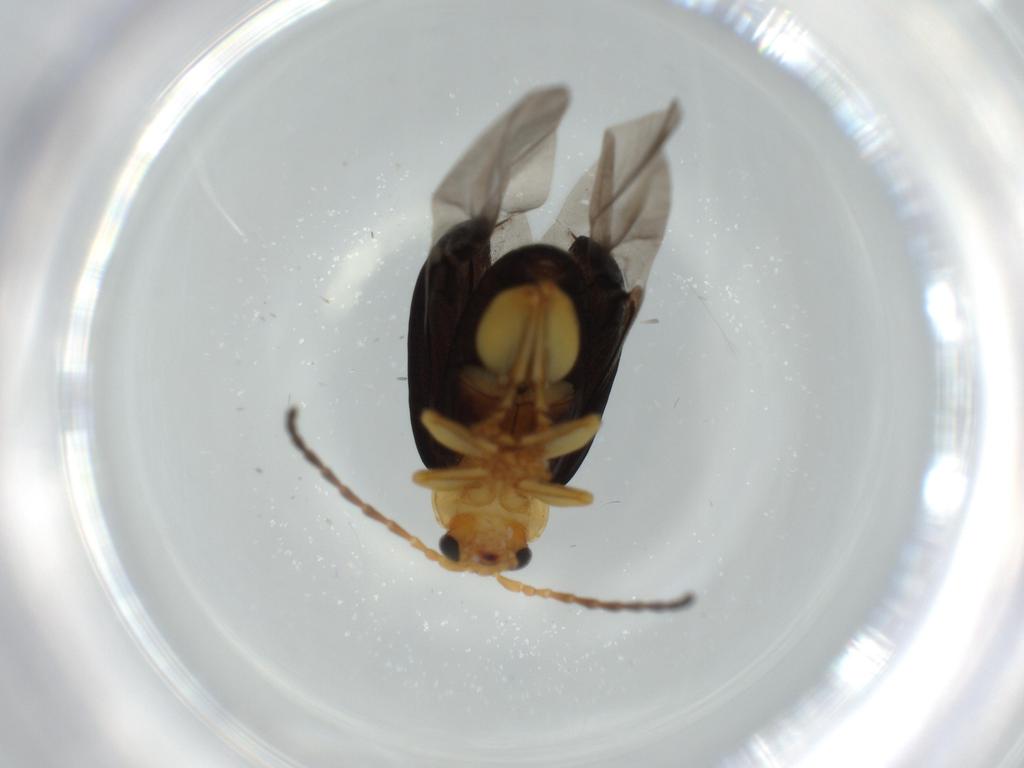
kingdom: Animalia
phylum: Arthropoda
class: Insecta
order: Coleoptera
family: Chrysomelidae
